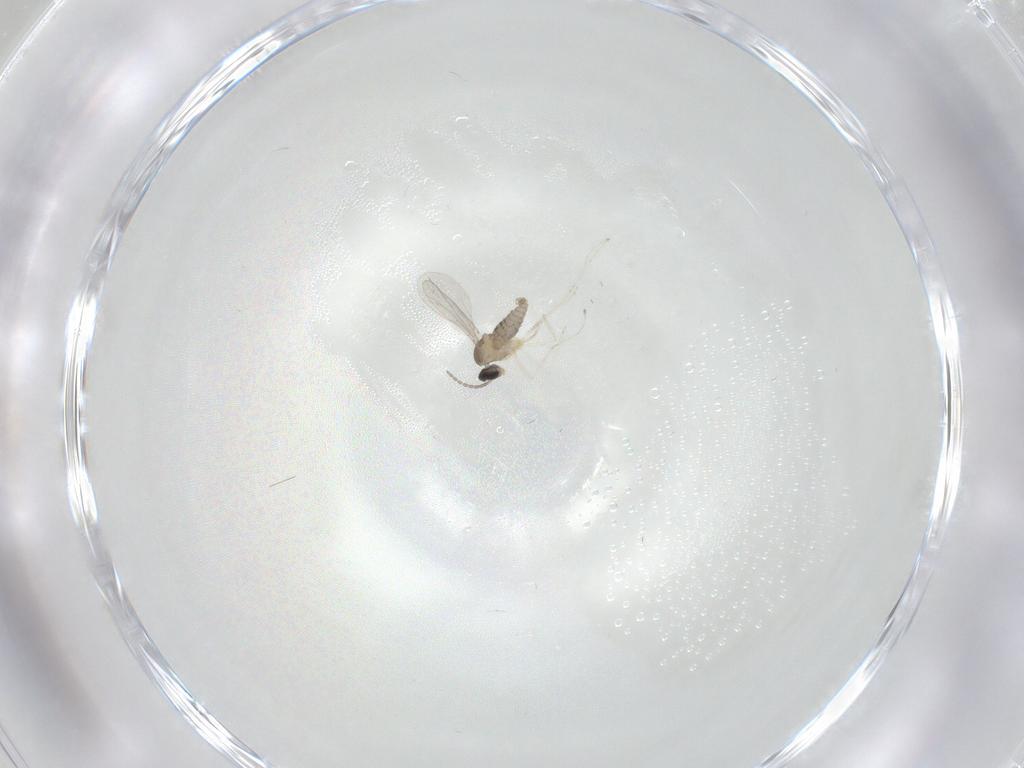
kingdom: Animalia
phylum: Arthropoda
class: Insecta
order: Diptera
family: Cecidomyiidae
